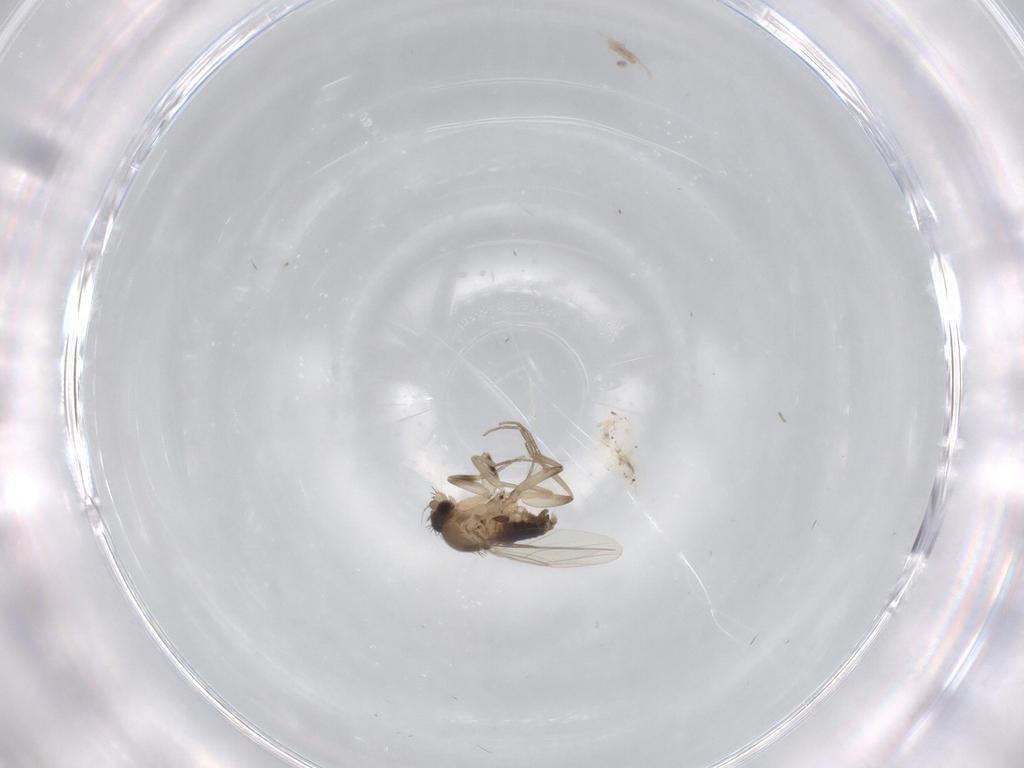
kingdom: Animalia
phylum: Arthropoda
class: Insecta
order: Diptera
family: Phoridae
